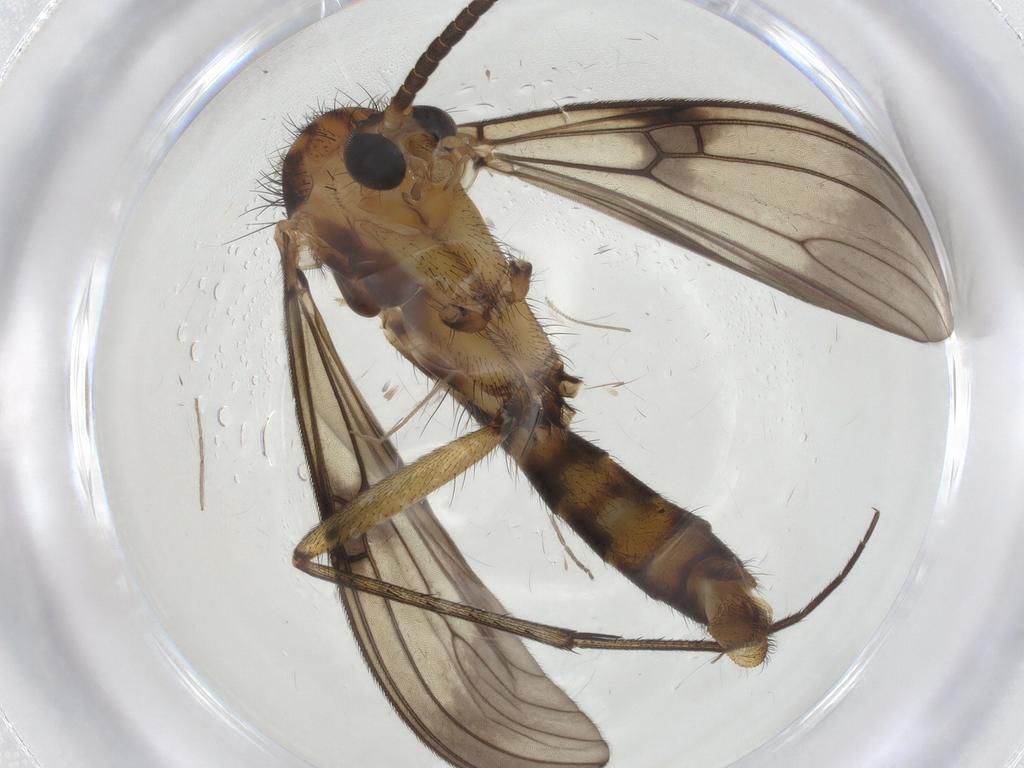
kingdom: Animalia
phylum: Arthropoda
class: Insecta
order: Diptera
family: Mycetophilidae
